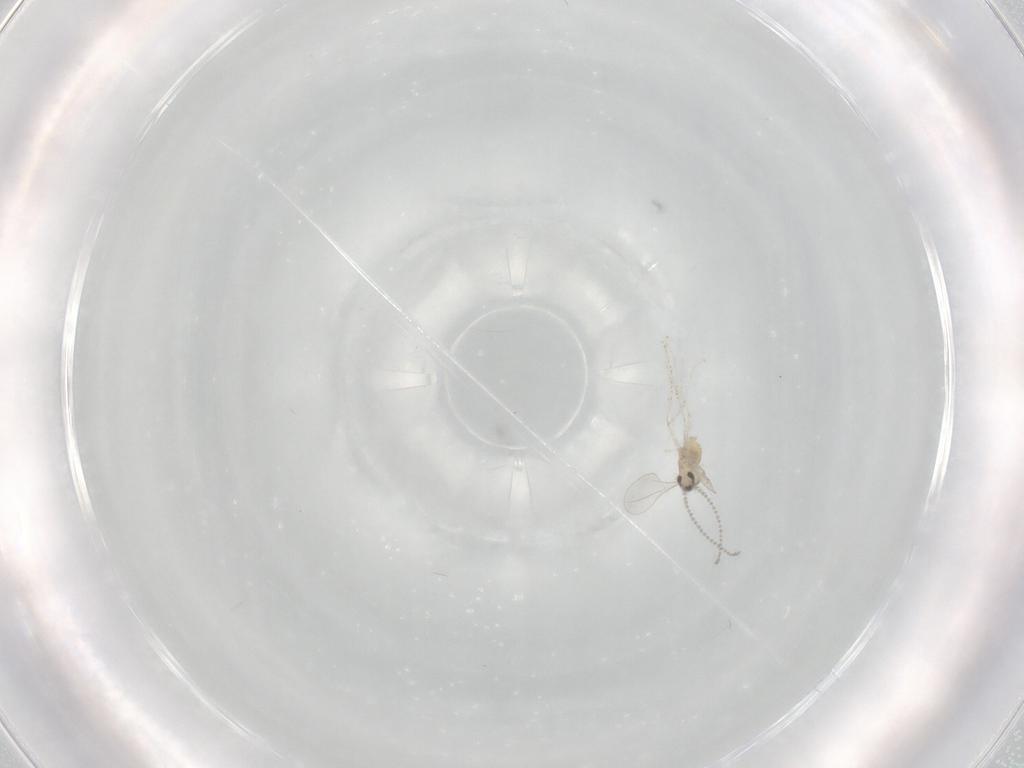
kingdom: Animalia
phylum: Arthropoda
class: Insecta
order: Diptera
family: Cecidomyiidae
